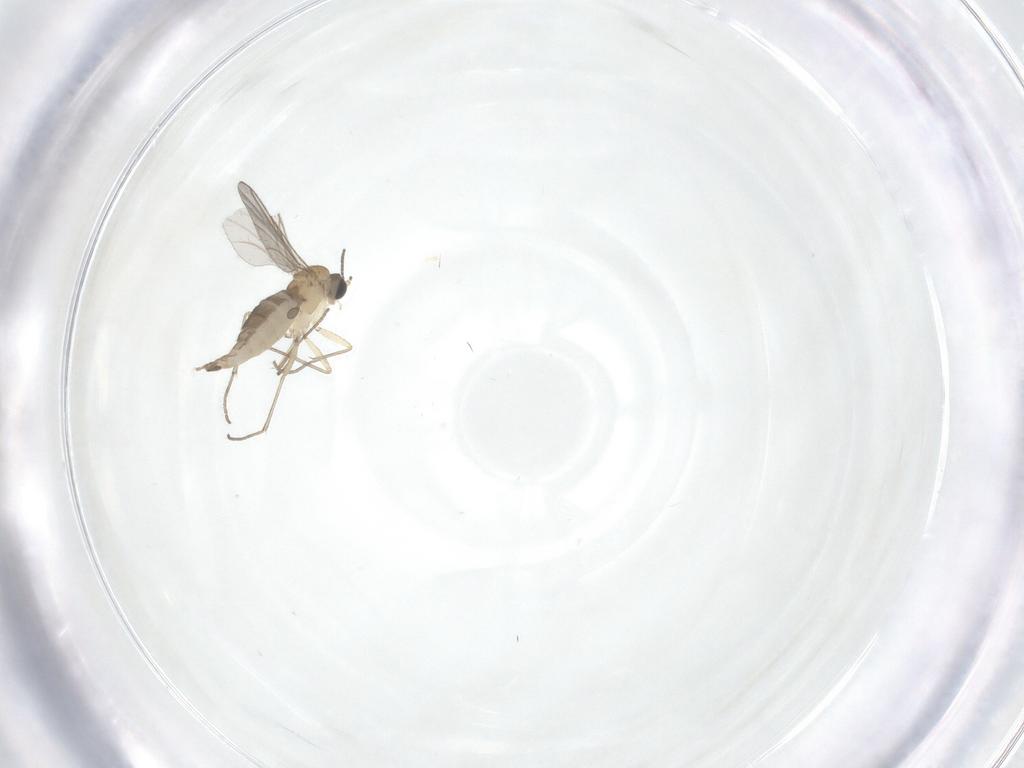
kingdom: Animalia
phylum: Arthropoda
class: Insecta
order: Diptera
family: Sciaridae
